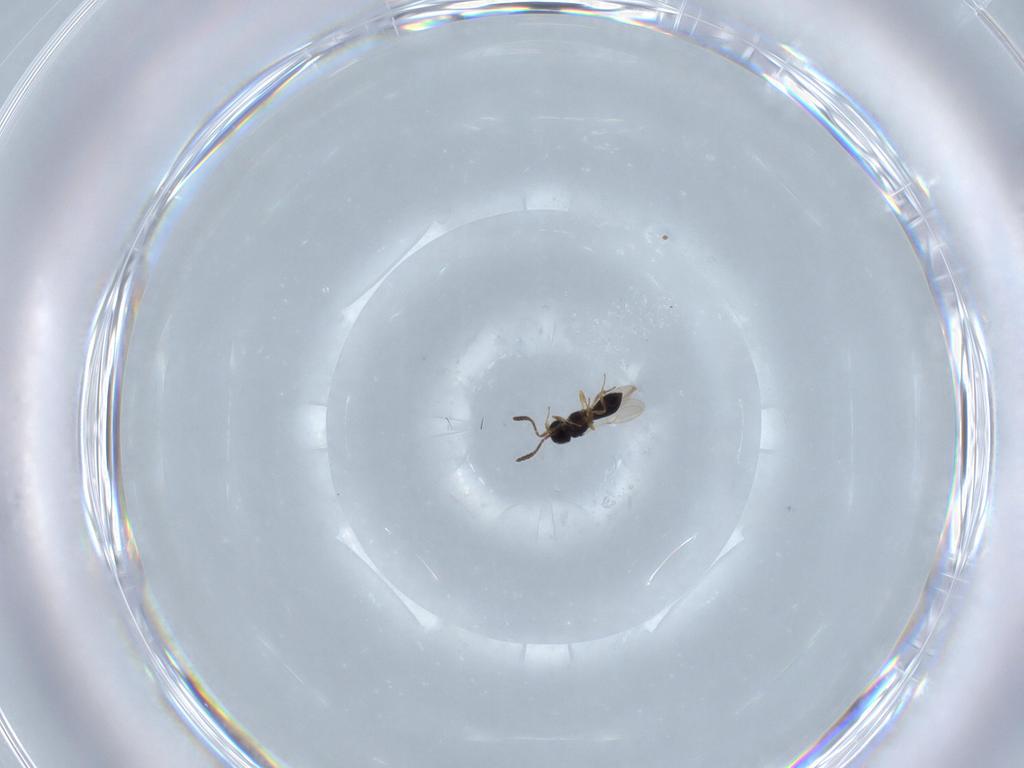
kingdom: Animalia
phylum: Arthropoda
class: Insecta
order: Hymenoptera
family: Scelionidae
